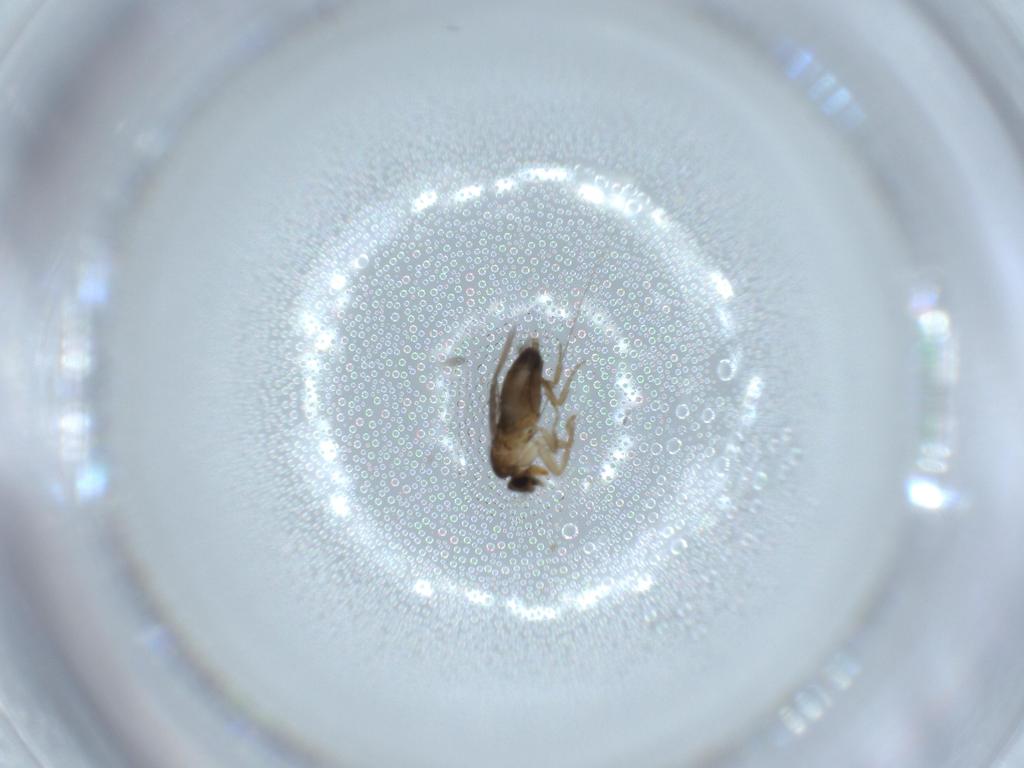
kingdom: Animalia
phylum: Arthropoda
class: Insecta
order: Diptera
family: Phoridae
